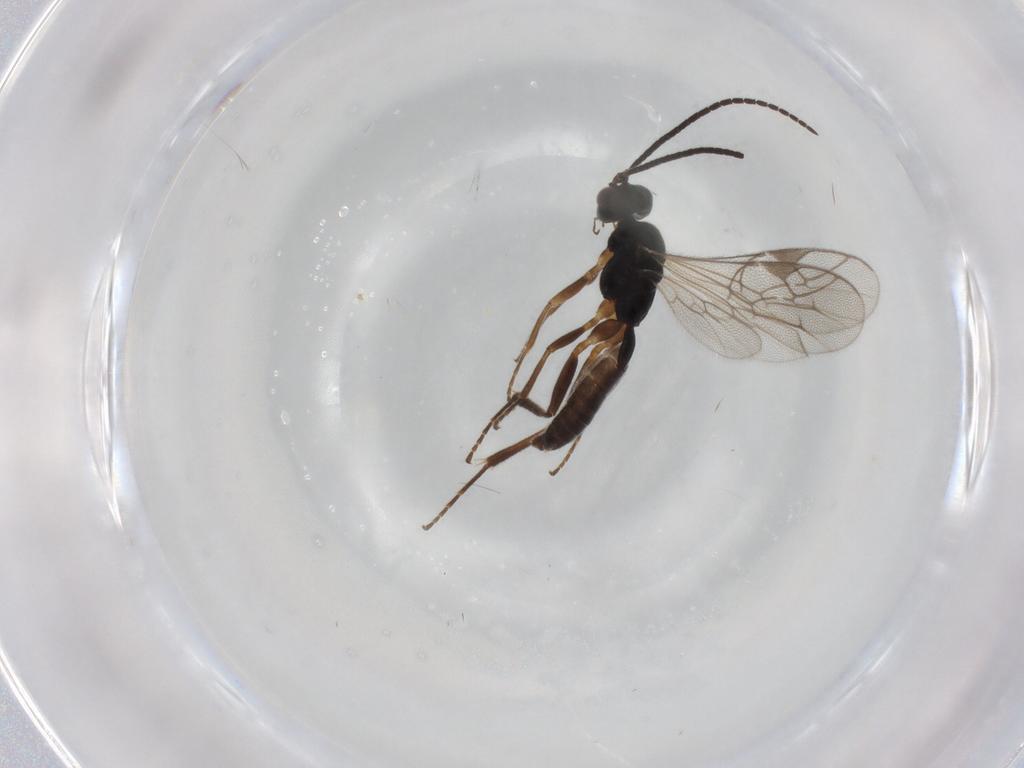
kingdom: Animalia
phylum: Arthropoda
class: Insecta
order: Hymenoptera
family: Ichneumonidae
